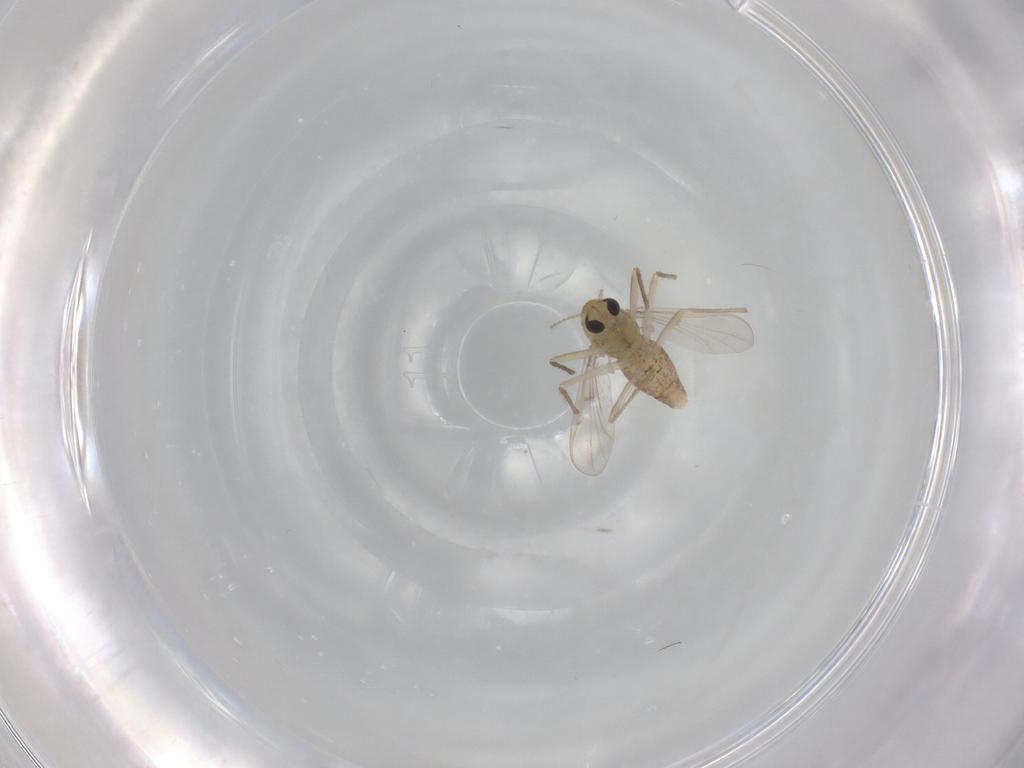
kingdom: Animalia
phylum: Arthropoda
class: Insecta
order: Diptera
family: Chironomidae
